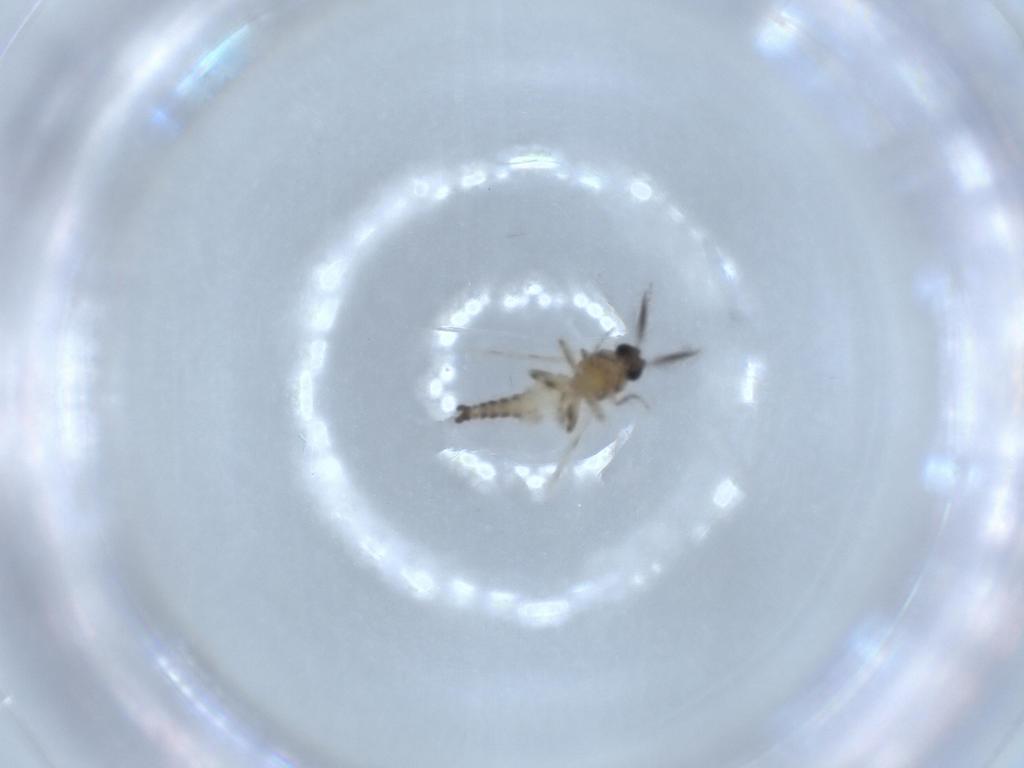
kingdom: Animalia
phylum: Arthropoda
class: Insecta
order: Diptera
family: Ceratopogonidae
